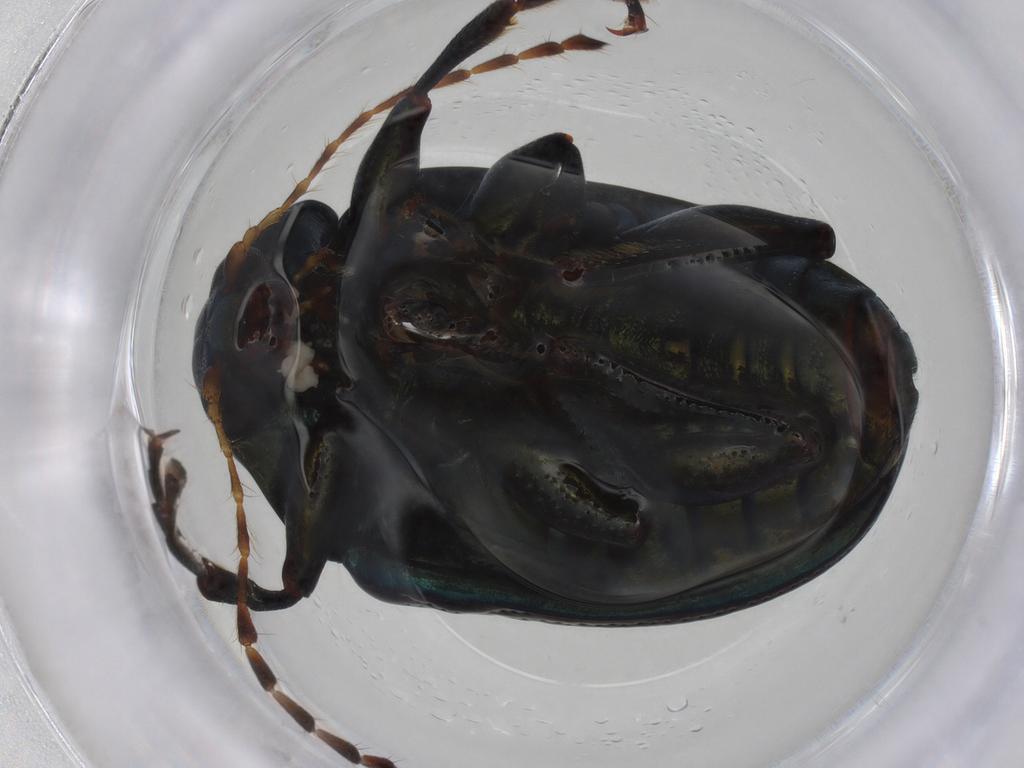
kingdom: Animalia
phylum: Arthropoda
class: Insecta
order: Coleoptera
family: Chrysomelidae
